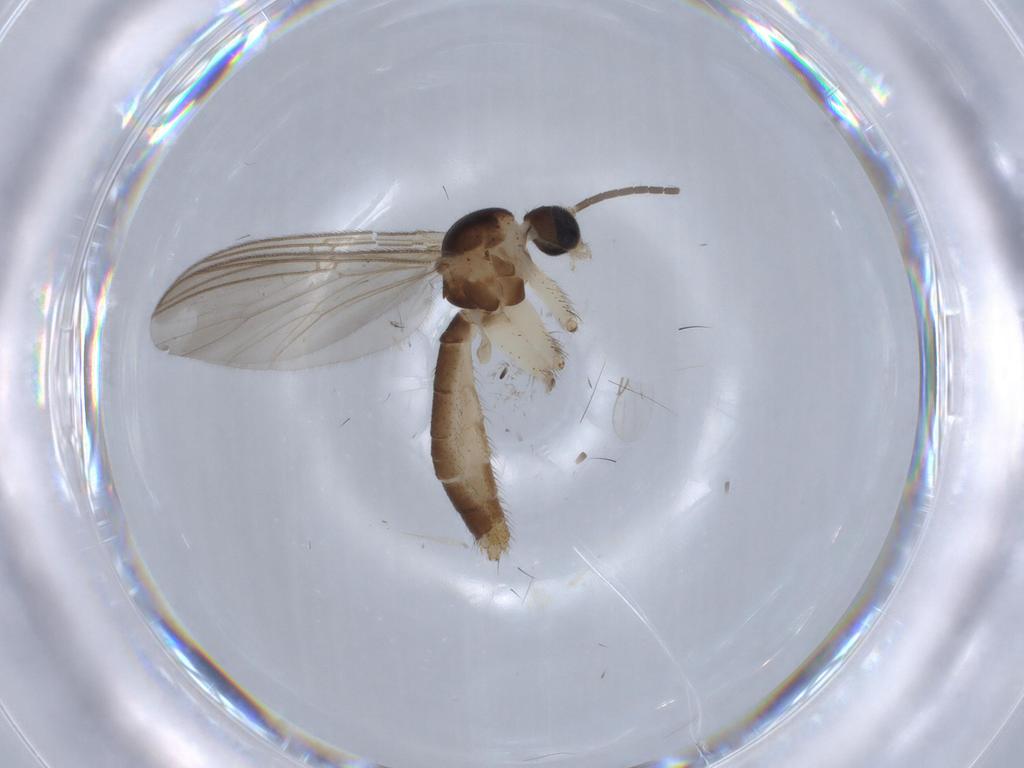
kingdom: Animalia
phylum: Arthropoda
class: Insecta
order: Diptera
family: Ceratopogonidae
